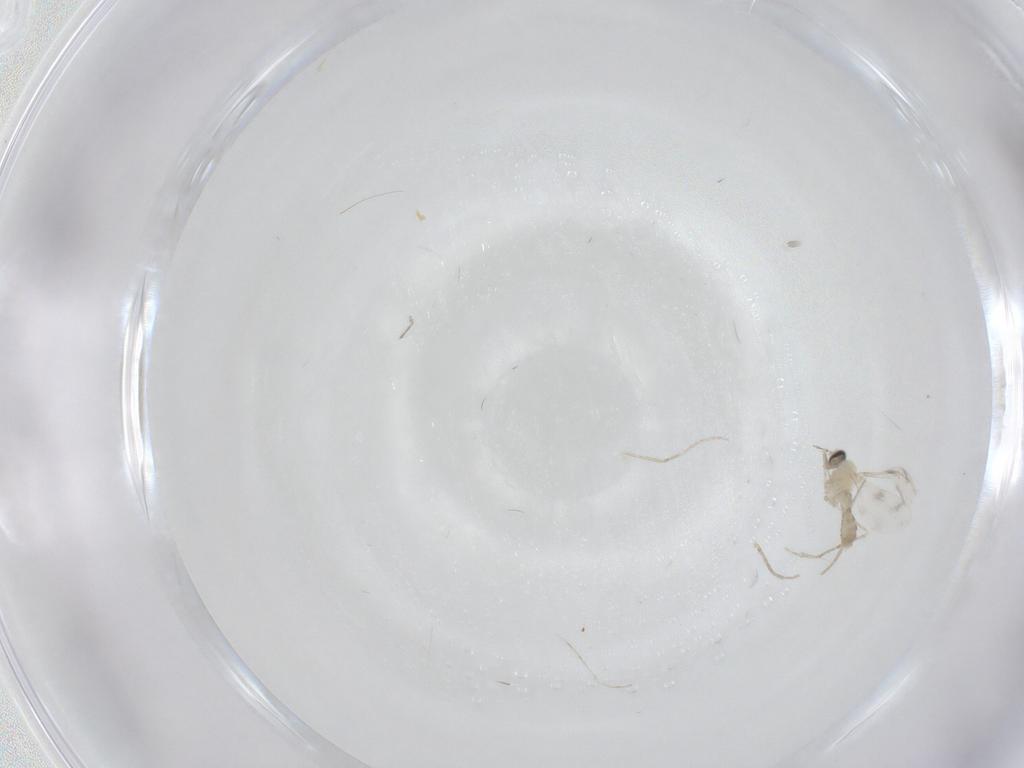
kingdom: Animalia
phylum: Arthropoda
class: Insecta
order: Diptera
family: Cecidomyiidae
